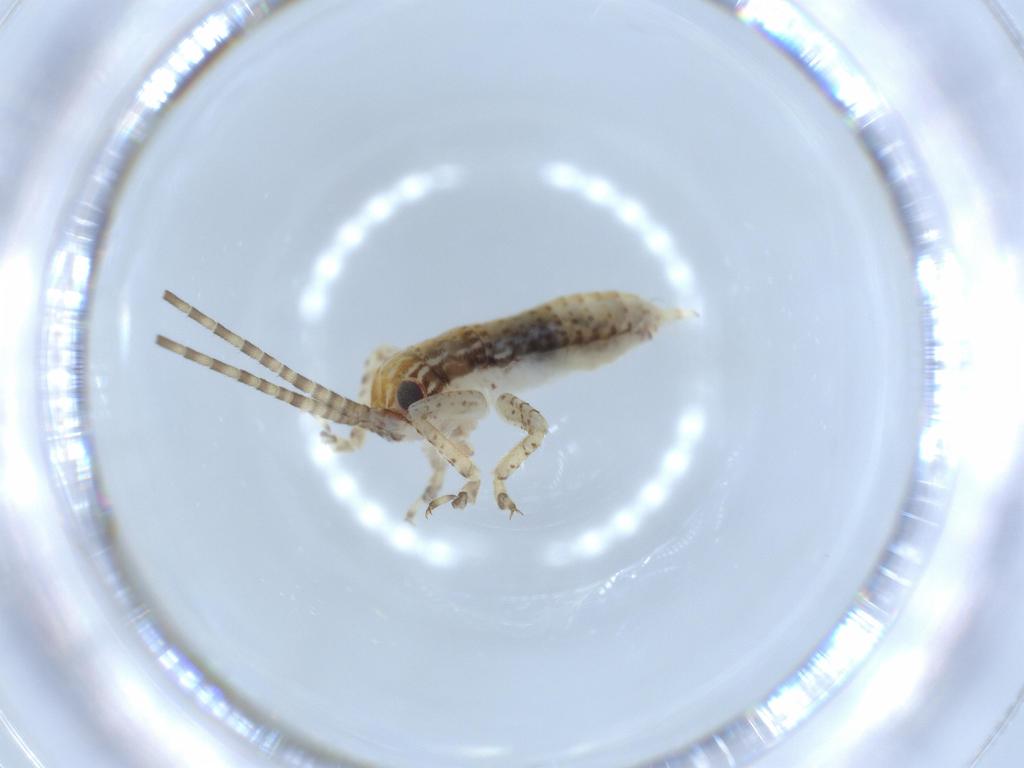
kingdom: Animalia
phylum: Arthropoda
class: Insecta
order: Orthoptera
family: Gryllidae
